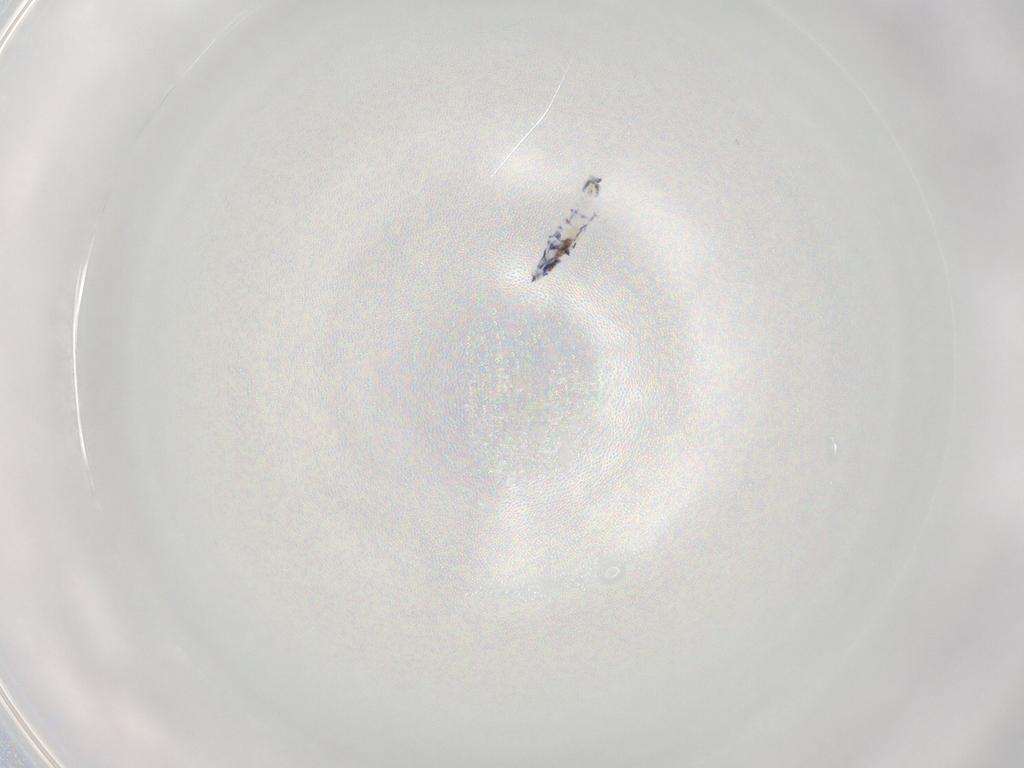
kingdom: Animalia
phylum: Arthropoda
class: Collembola
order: Entomobryomorpha
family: Entomobryidae
